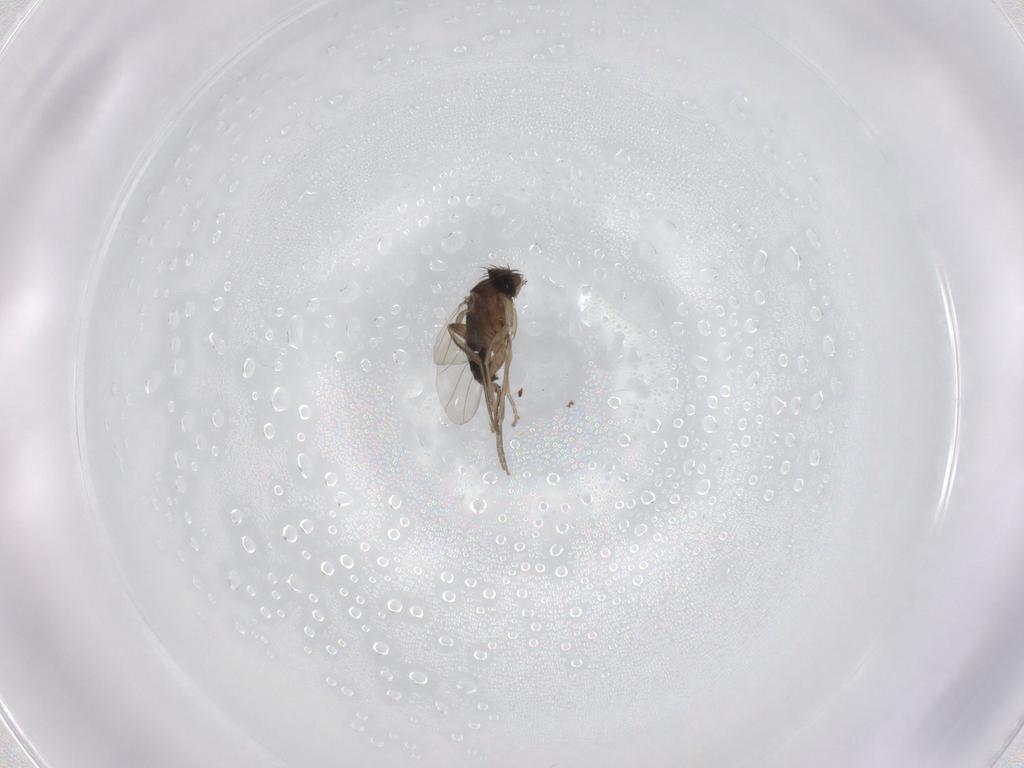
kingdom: Animalia
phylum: Arthropoda
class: Insecta
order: Diptera
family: Phoridae
